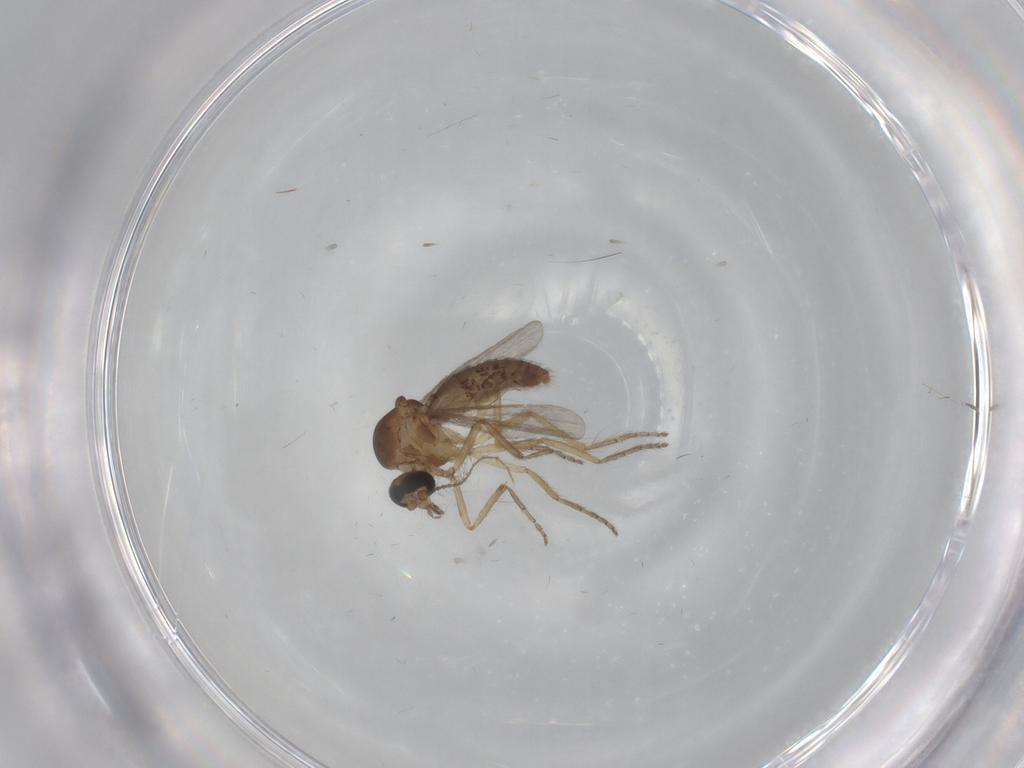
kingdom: Animalia
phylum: Arthropoda
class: Insecta
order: Diptera
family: Ceratopogonidae
